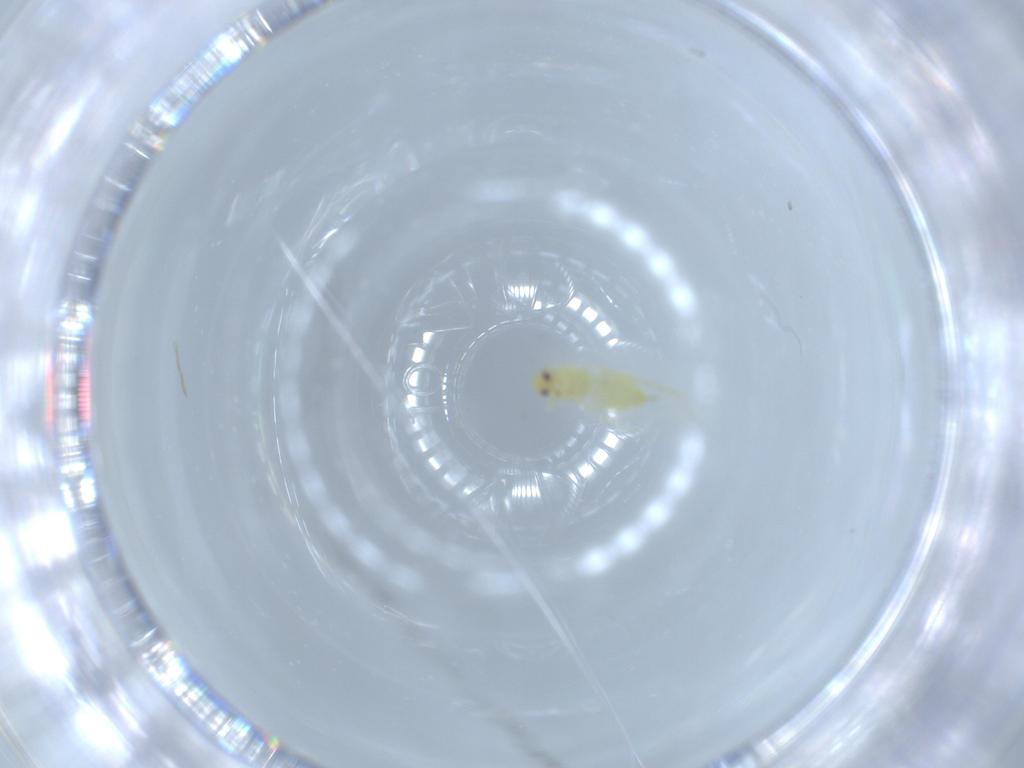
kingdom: Animalia
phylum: Arthropoda
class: Insecta
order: Hemiptera
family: Aleyrodidae
